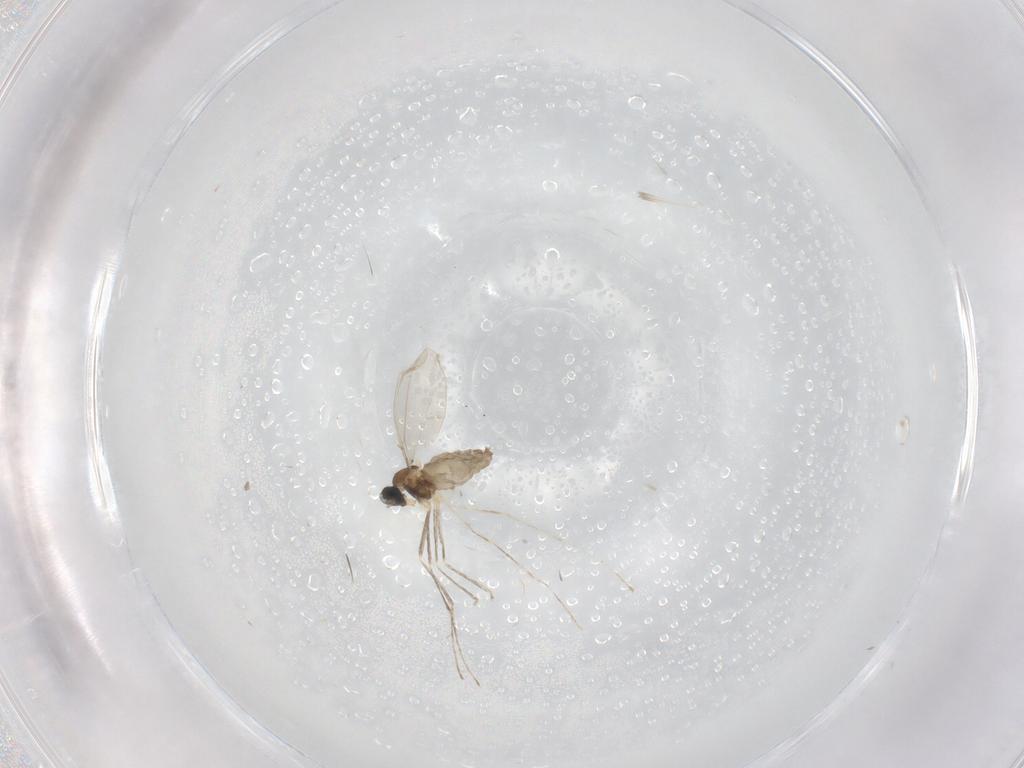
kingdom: Animalia
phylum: Arthropoda
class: Insecta
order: Diptera
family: Cecidomyiidae
